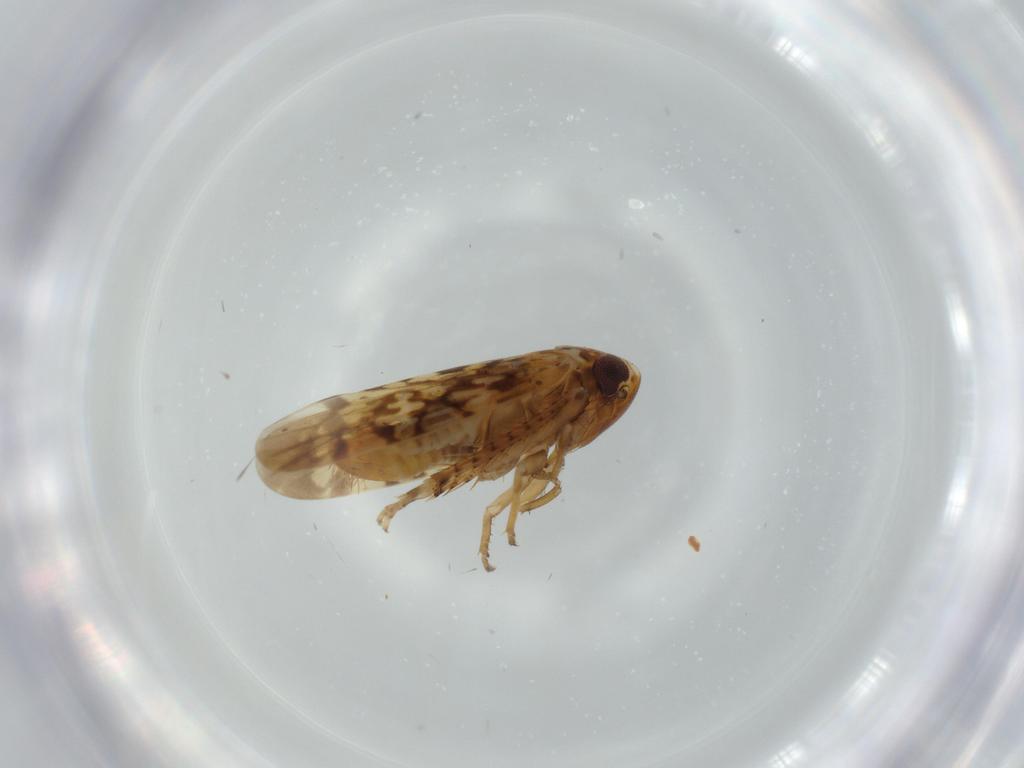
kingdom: Animalia
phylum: Arthropoda
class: Insecta
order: Hemiptera
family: Cicadellidae
